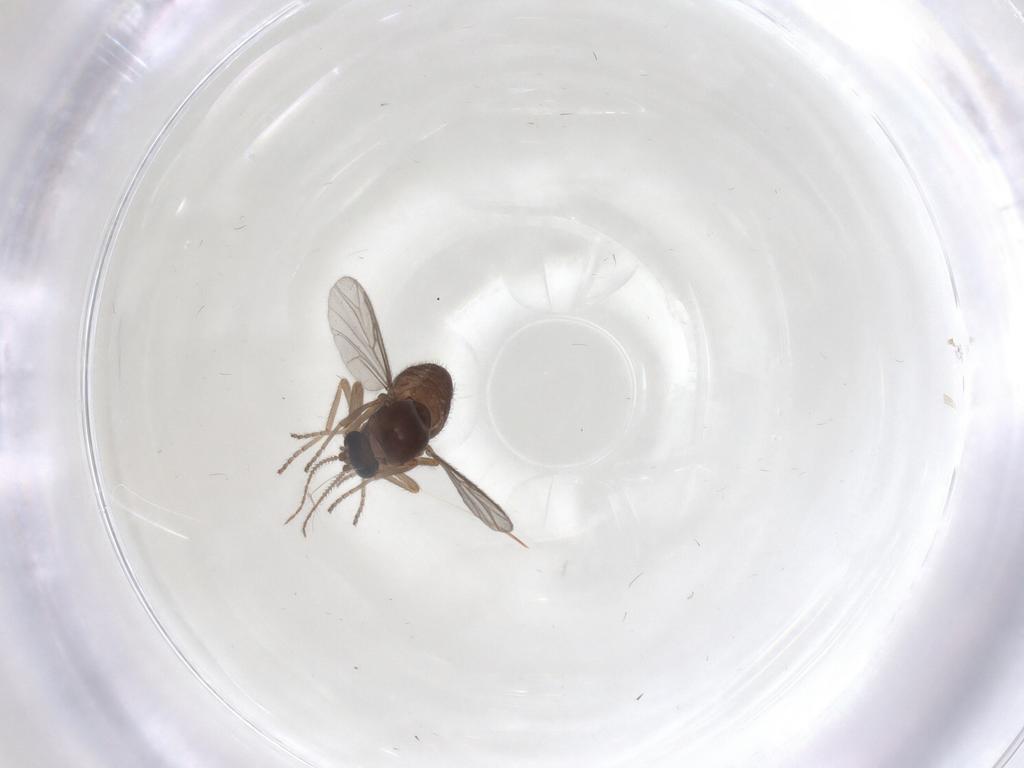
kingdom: Animalia
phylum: Arthropoda
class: Insecta
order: Diptera
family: Ceratopogonidae
